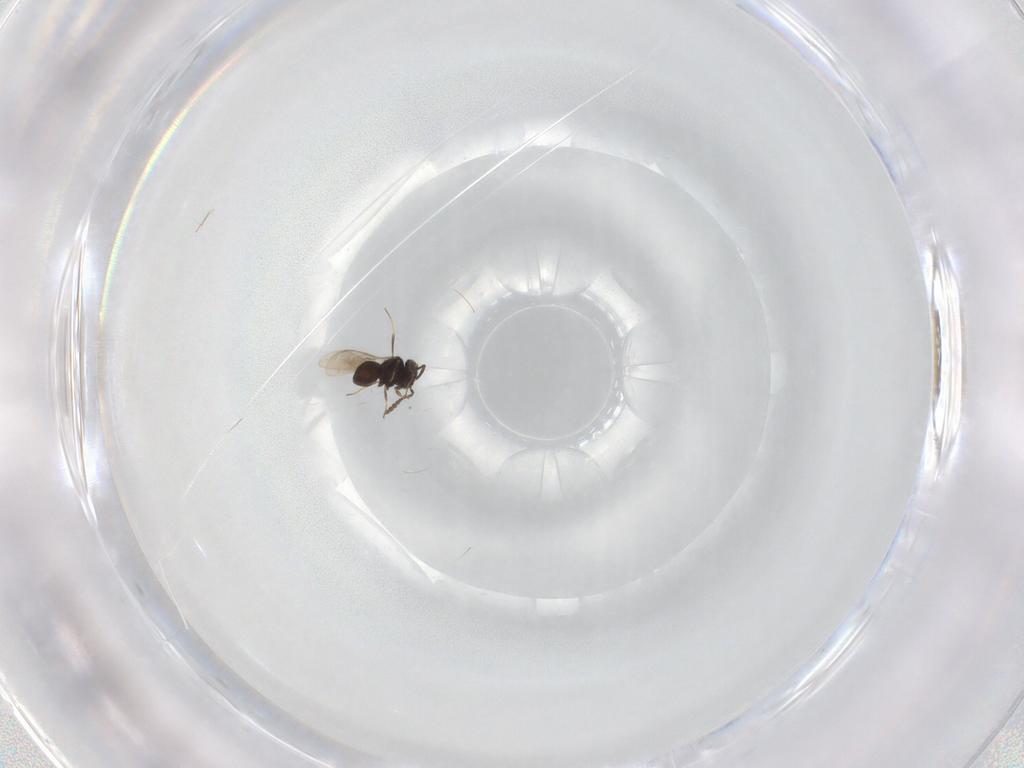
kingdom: Animalia
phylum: Arthropoda
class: Insecta
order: Hymenoptera
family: Scelionidae
